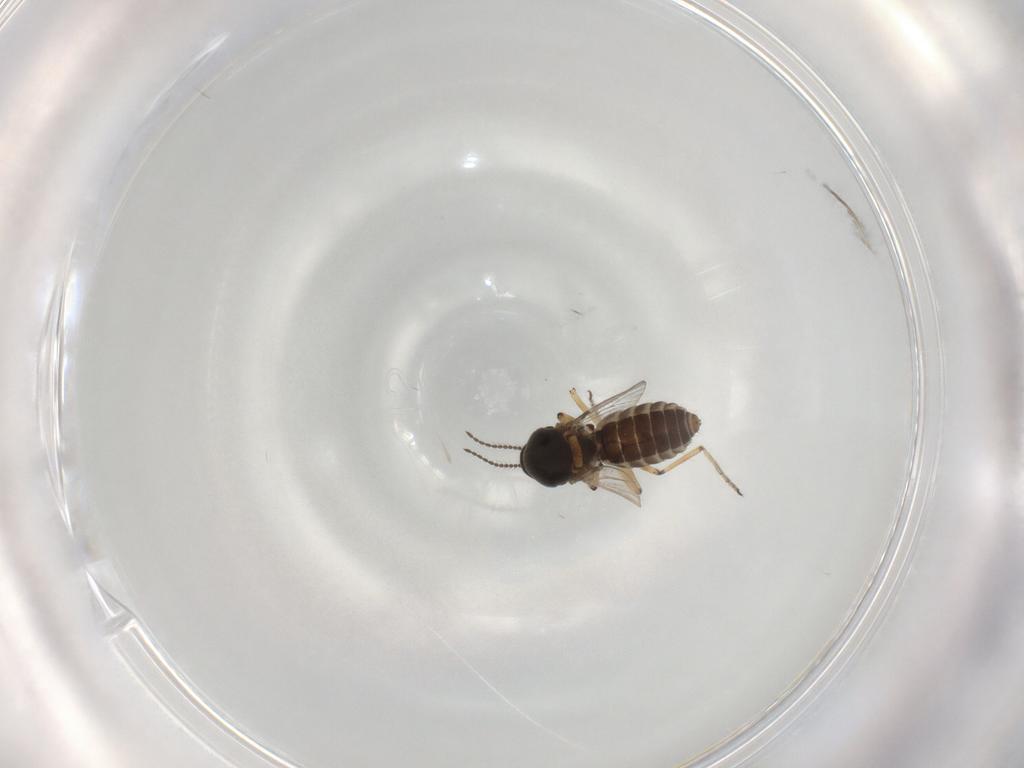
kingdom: Animalia
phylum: Arthropoda
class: Insecta
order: Diptera
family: Ceratopogonidae
